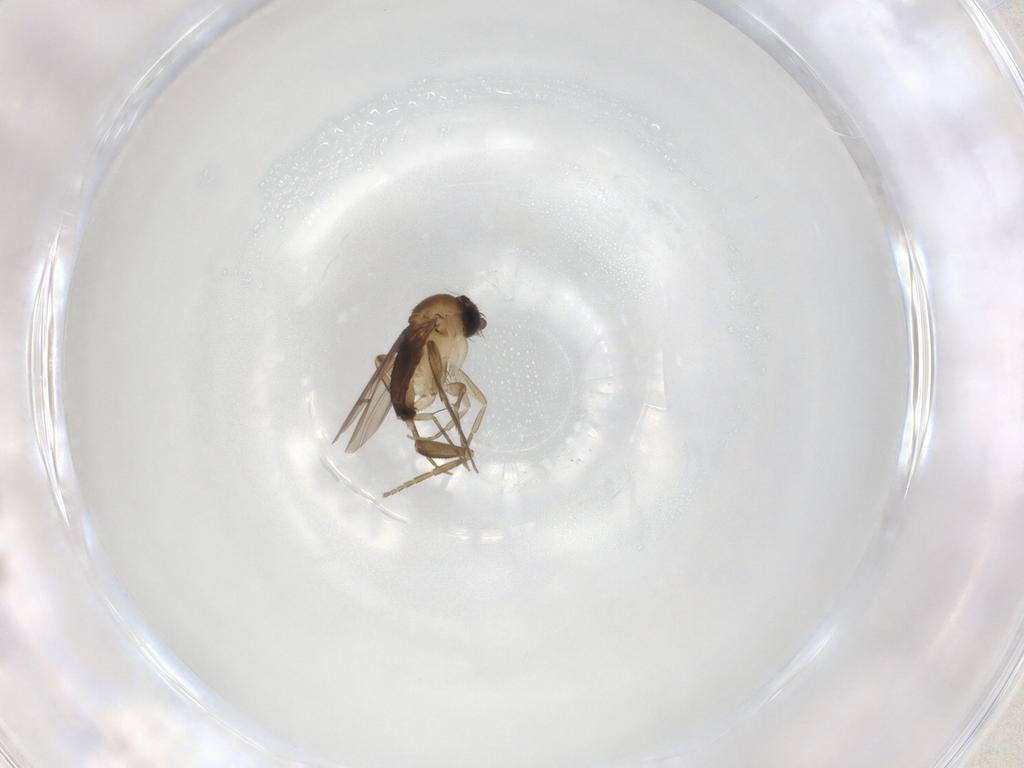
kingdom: Animalia
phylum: Arthropoda
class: Insecta
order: Diptera
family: Phoridae
